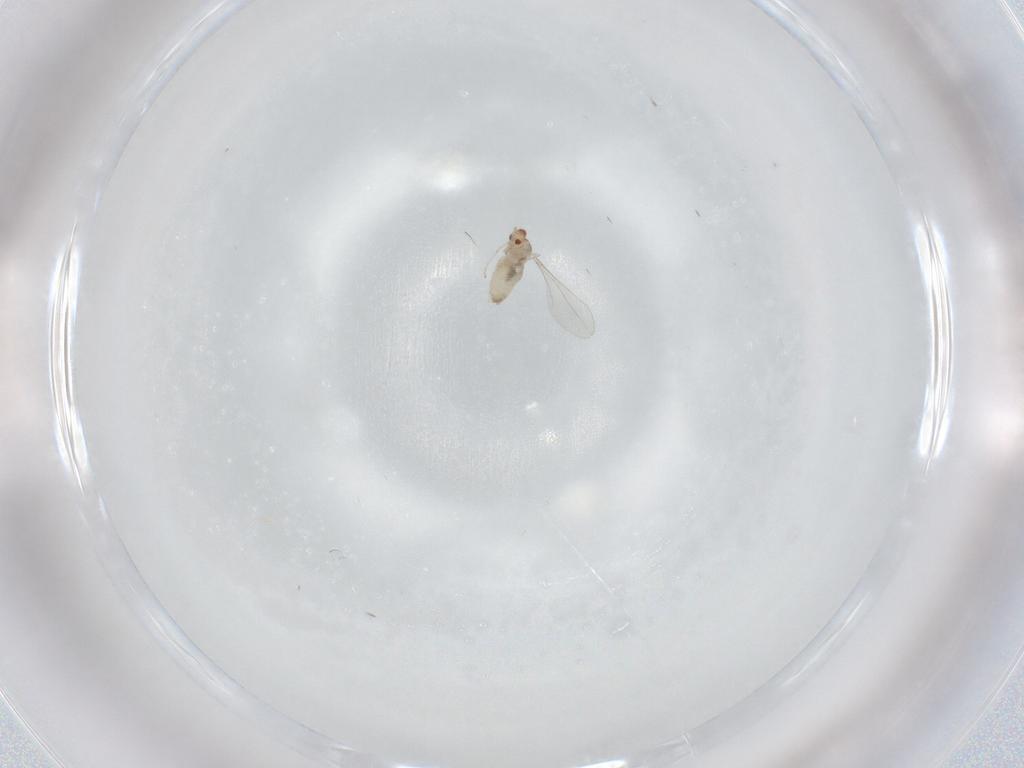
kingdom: Animalia
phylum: Arthropoda
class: Insecta
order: Diptera
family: Cecidomyiidae
